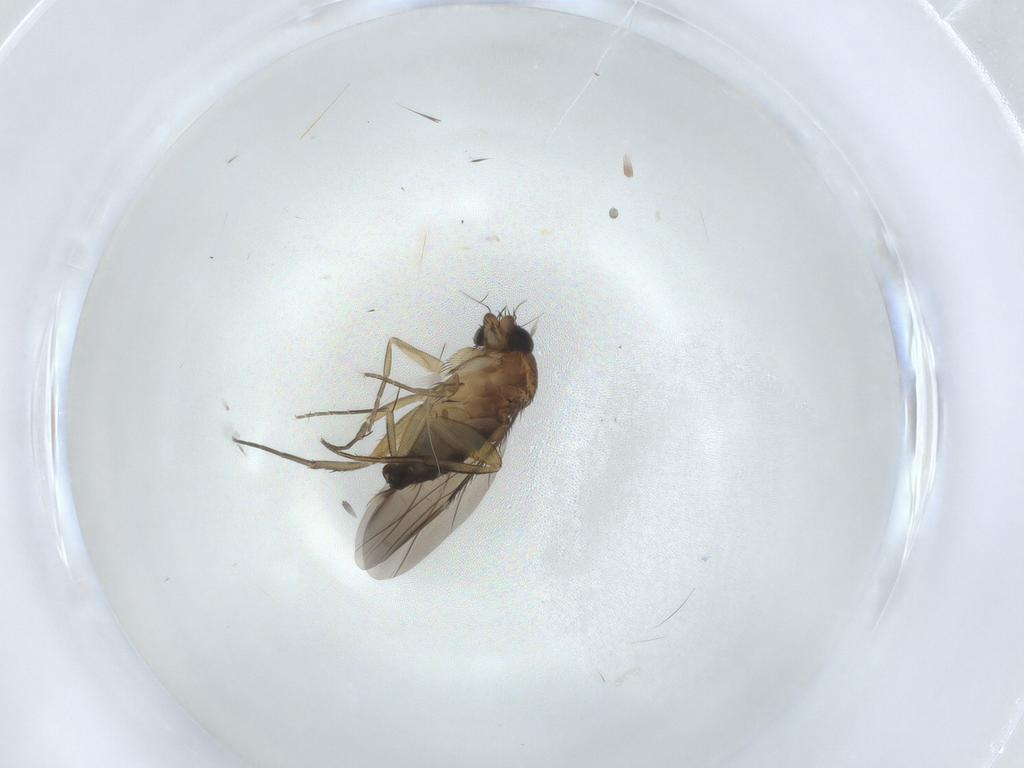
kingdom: Animalia
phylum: Arthropoda
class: Insecta
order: Diptera
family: Phoridae
